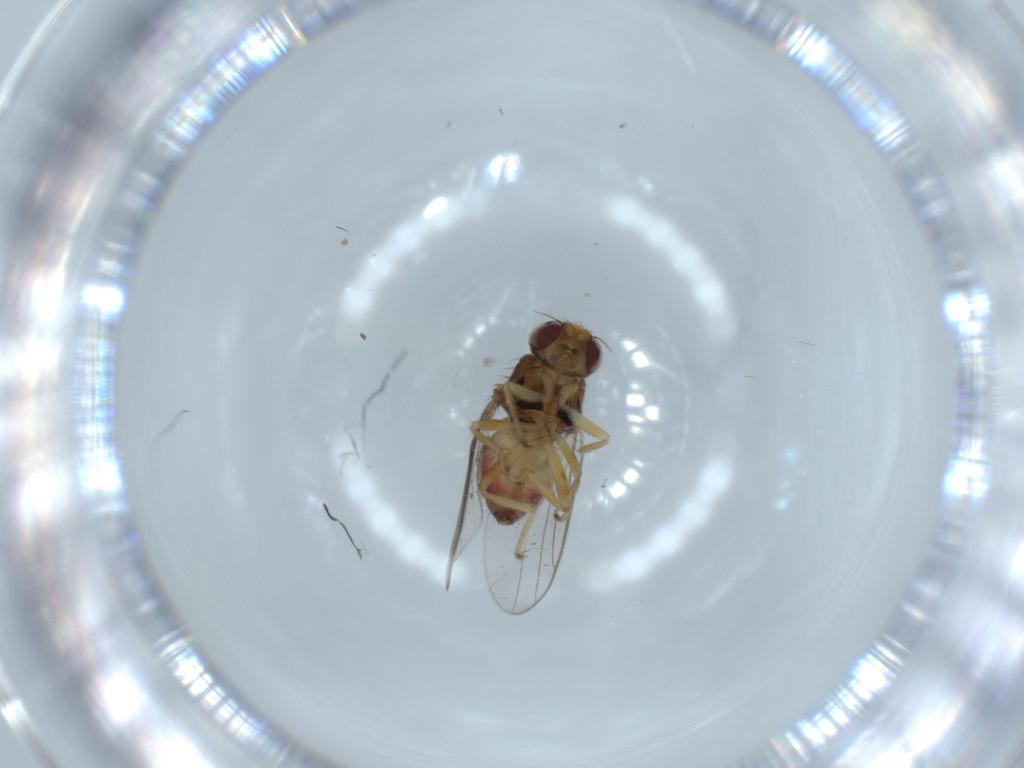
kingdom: Animalia
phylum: Arthropoda
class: Insecta
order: Diptera
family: Chloropidae
